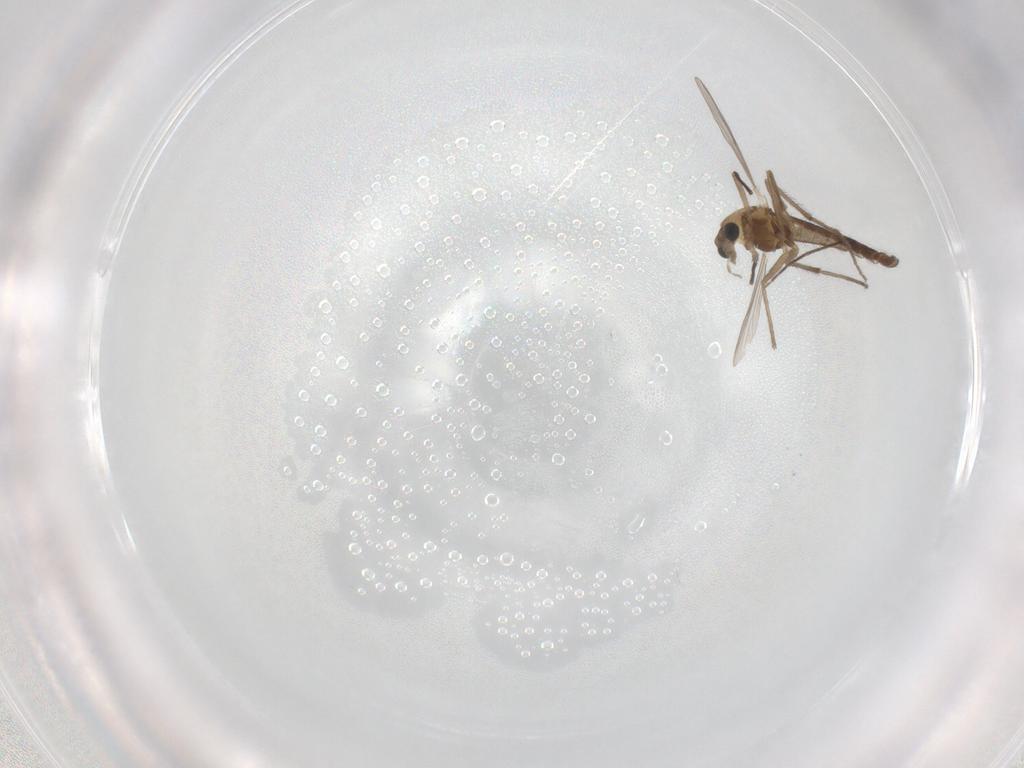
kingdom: Animalia
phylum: Arthropoda
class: Insecta
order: Diptera
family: Chironomidae
